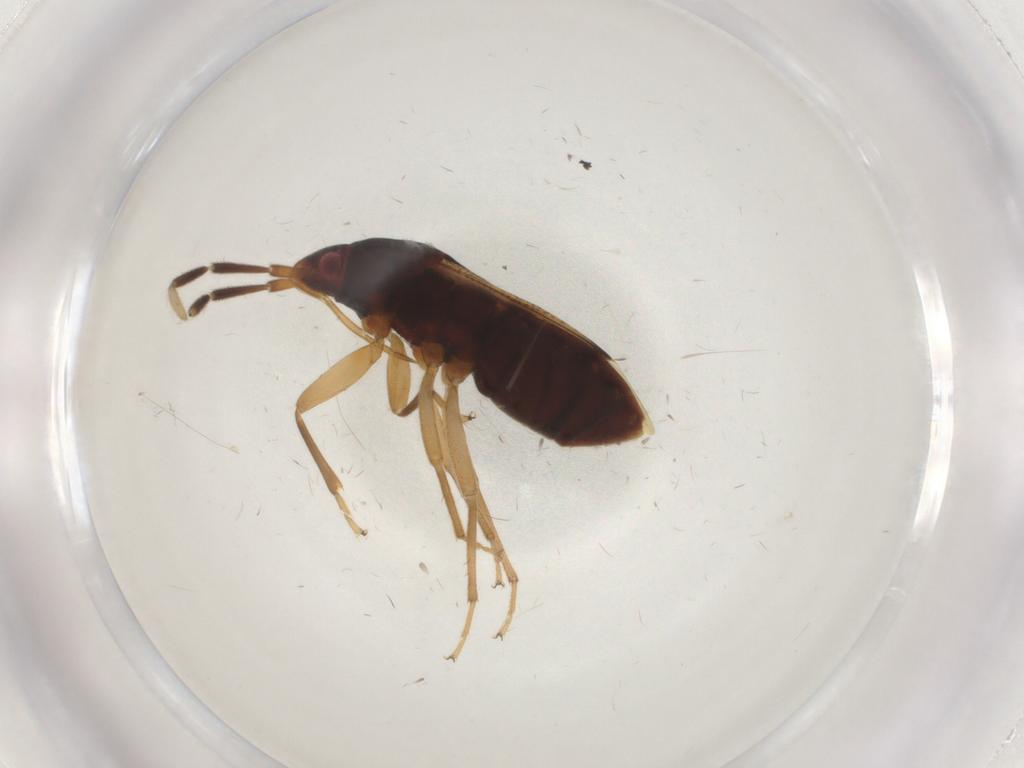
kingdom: Animalia
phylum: Arthropoda
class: Insecta
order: Hemiptera
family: Rhyparochromidae
